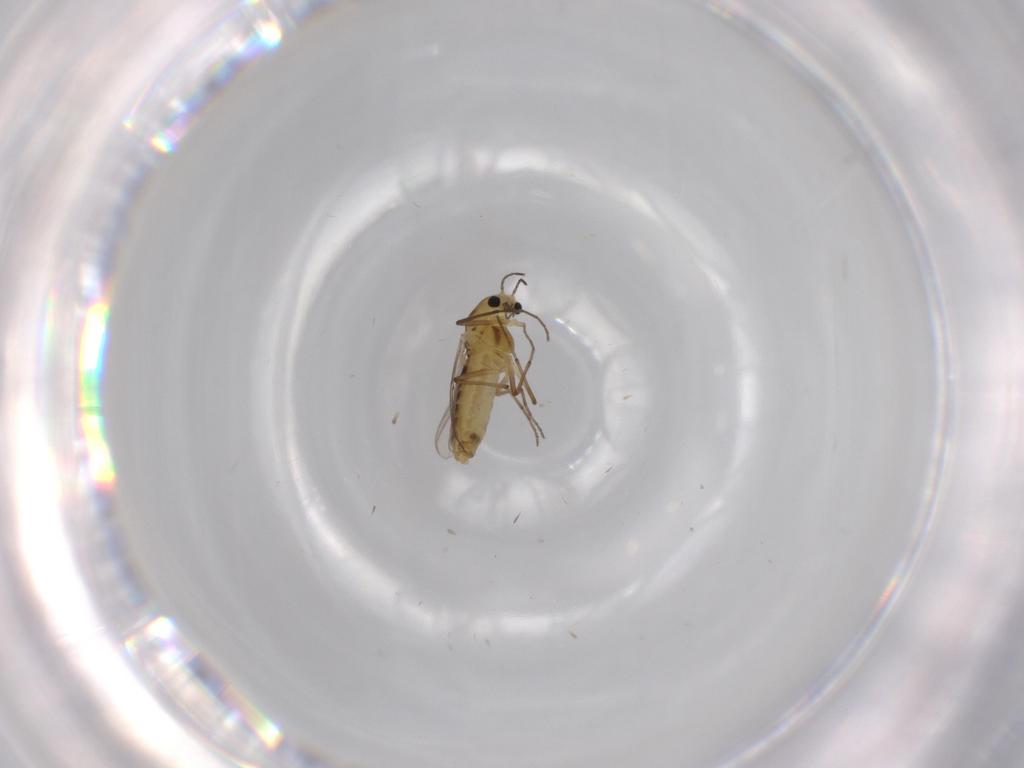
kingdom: Animalia
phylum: Arthropoda
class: Insecta
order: Diptera
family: Chironomidae
